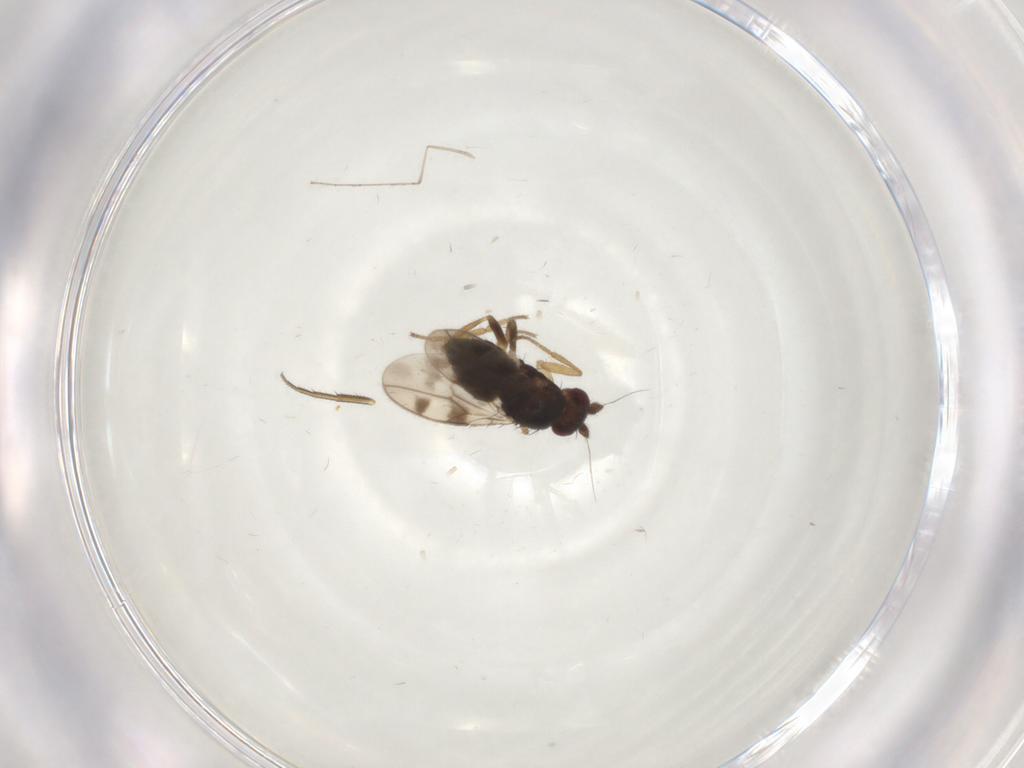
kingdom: Animalia
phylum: Arthropoda
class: Insecta
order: Diptera
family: Sphaeroceridae
